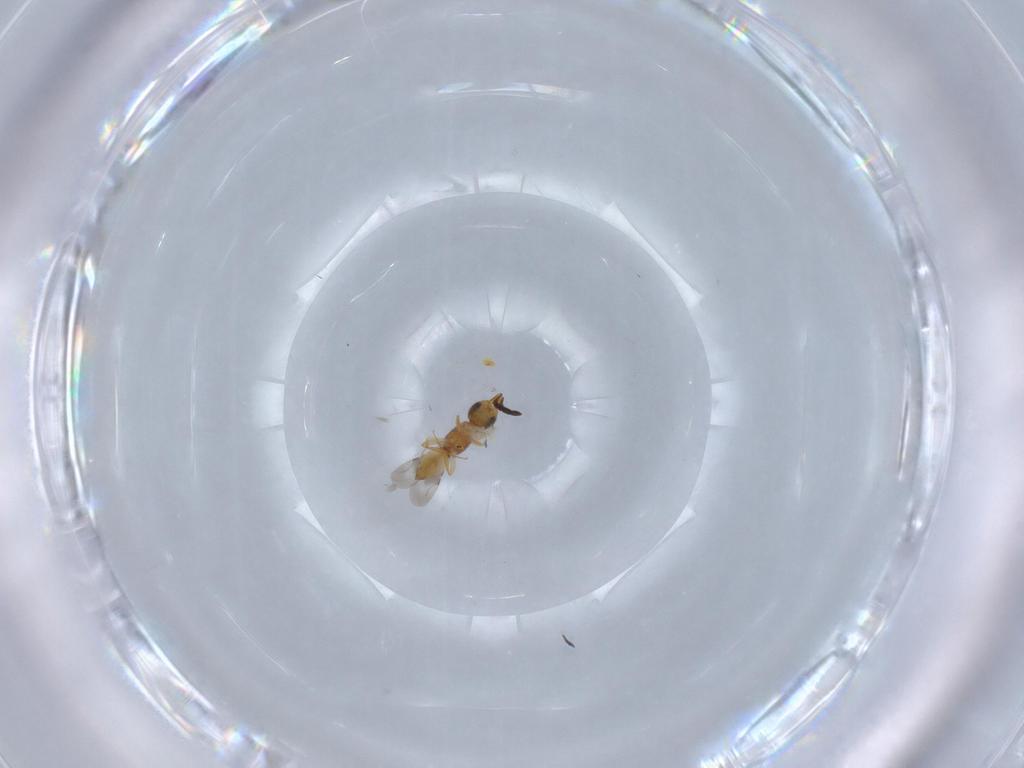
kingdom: Animalia
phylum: Arthropoda
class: Insecta
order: Hymenoptera
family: Ceraphronidae
